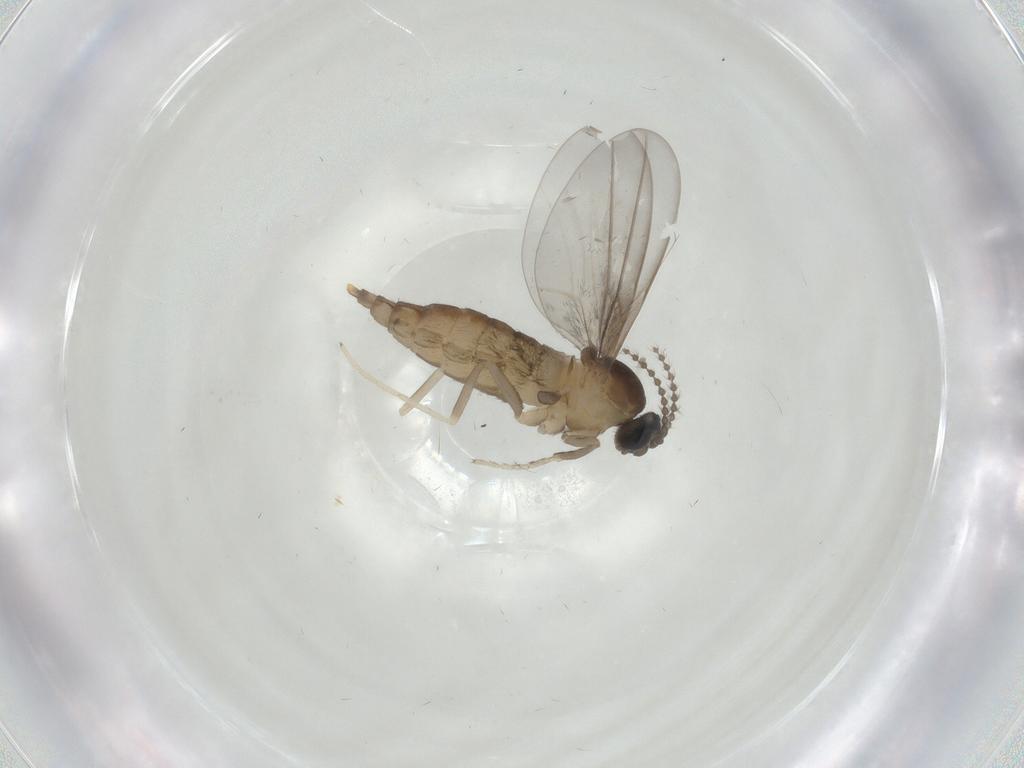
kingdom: Animalia
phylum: Arthropoda
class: Insecta
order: Diptera
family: Cecidomyiidae
